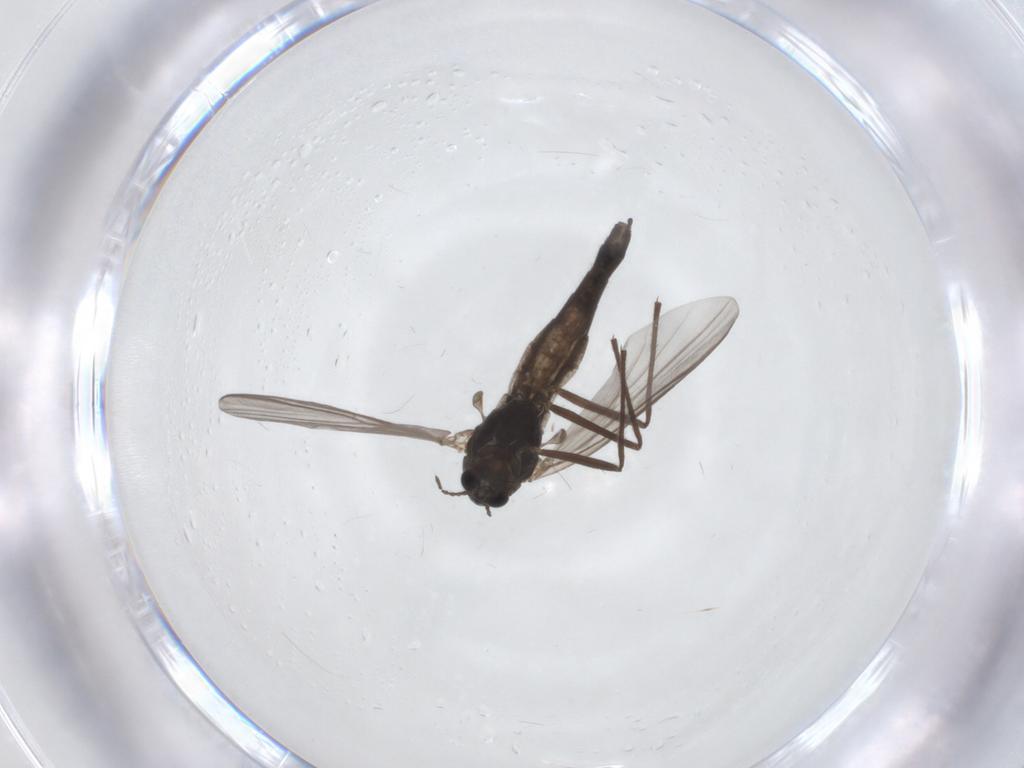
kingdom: Animalia
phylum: Arthropoda
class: Insecta
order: Diptera
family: Chironomidae
